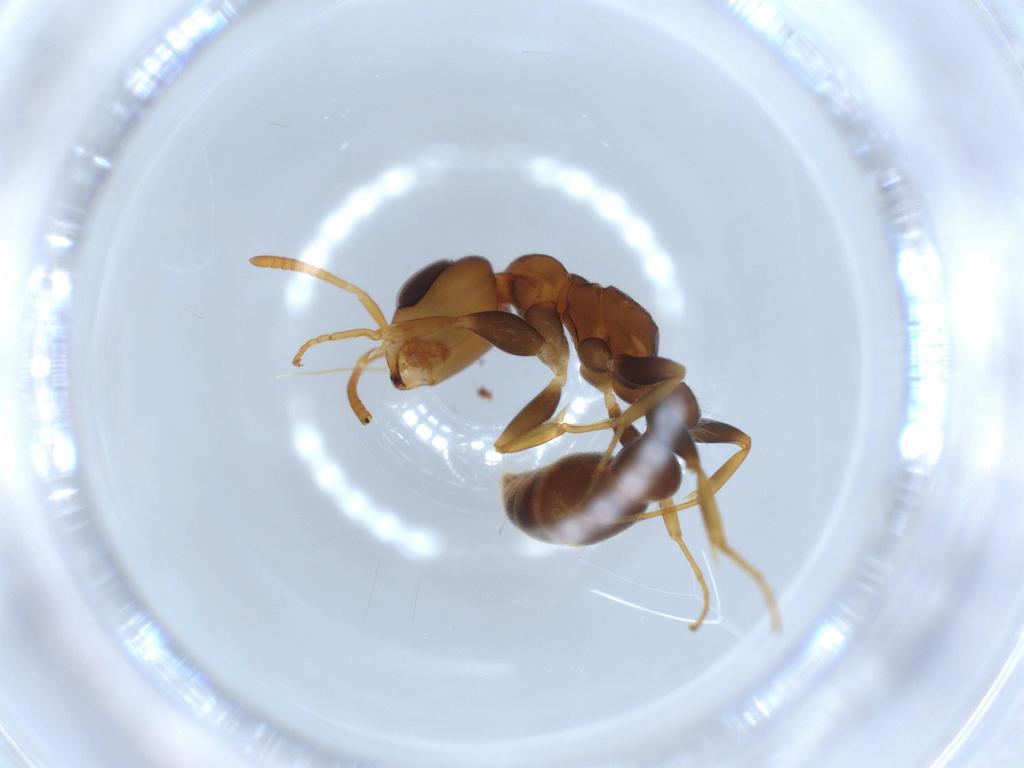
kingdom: Animalia
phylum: Arthropoda
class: Insecta
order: Hymenoptera
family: Formicidae
